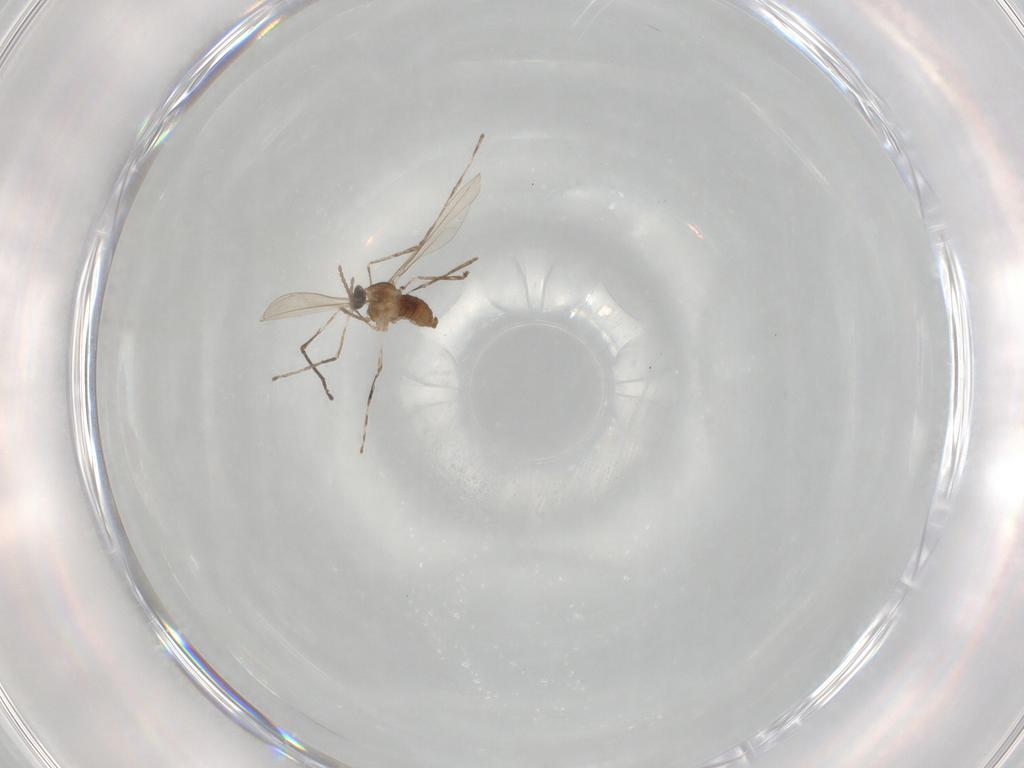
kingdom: Animalia
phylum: Arthropoda
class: Insecta
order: Diptera
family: Cecidomyiidae
